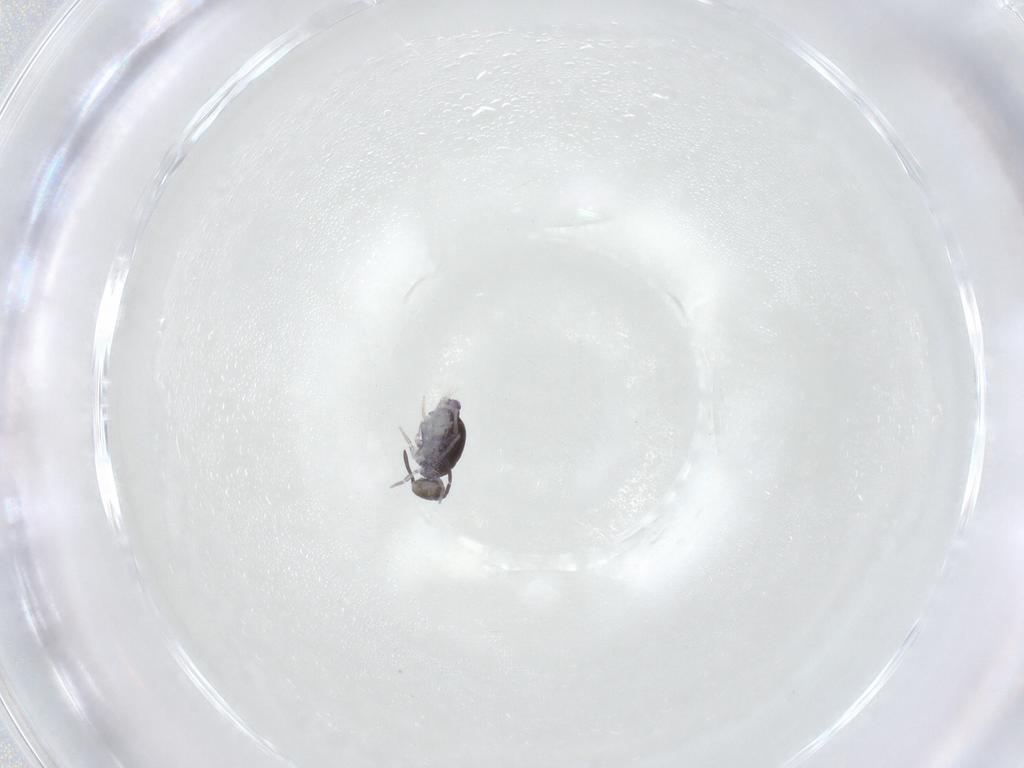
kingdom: Animalia
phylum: Arthropoda
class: Collembola
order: Symphypleona
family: Katiannidae
